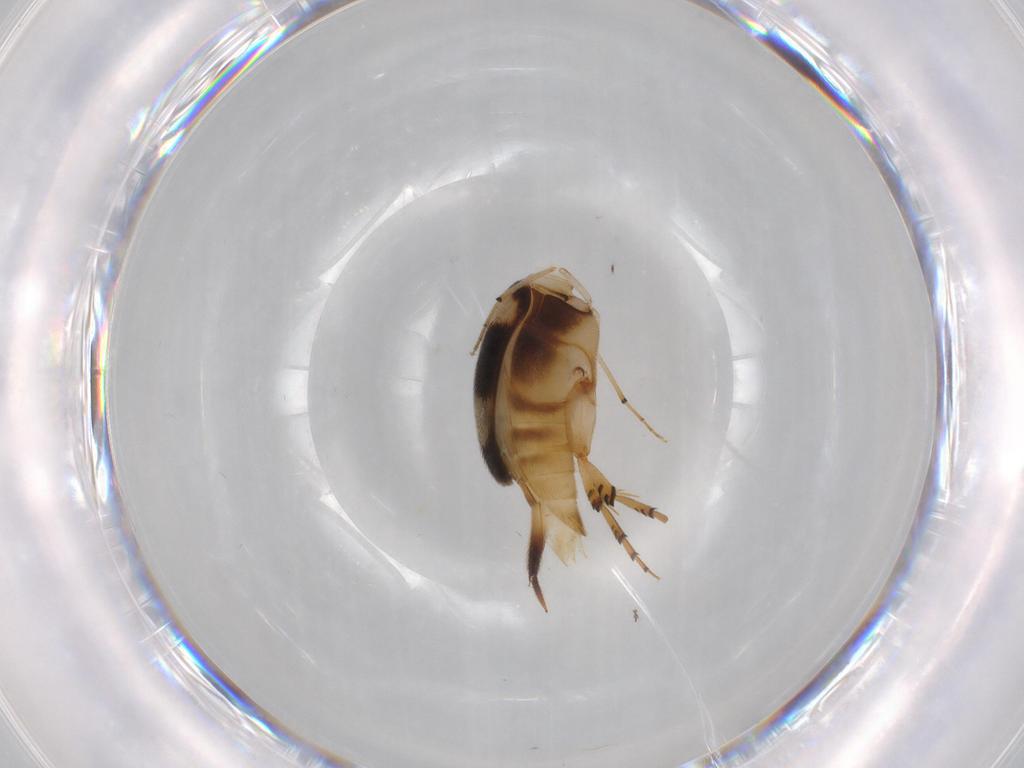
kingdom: Animalia
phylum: Arthropoda
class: Insecta
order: Coleoptera
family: Mordellidae
